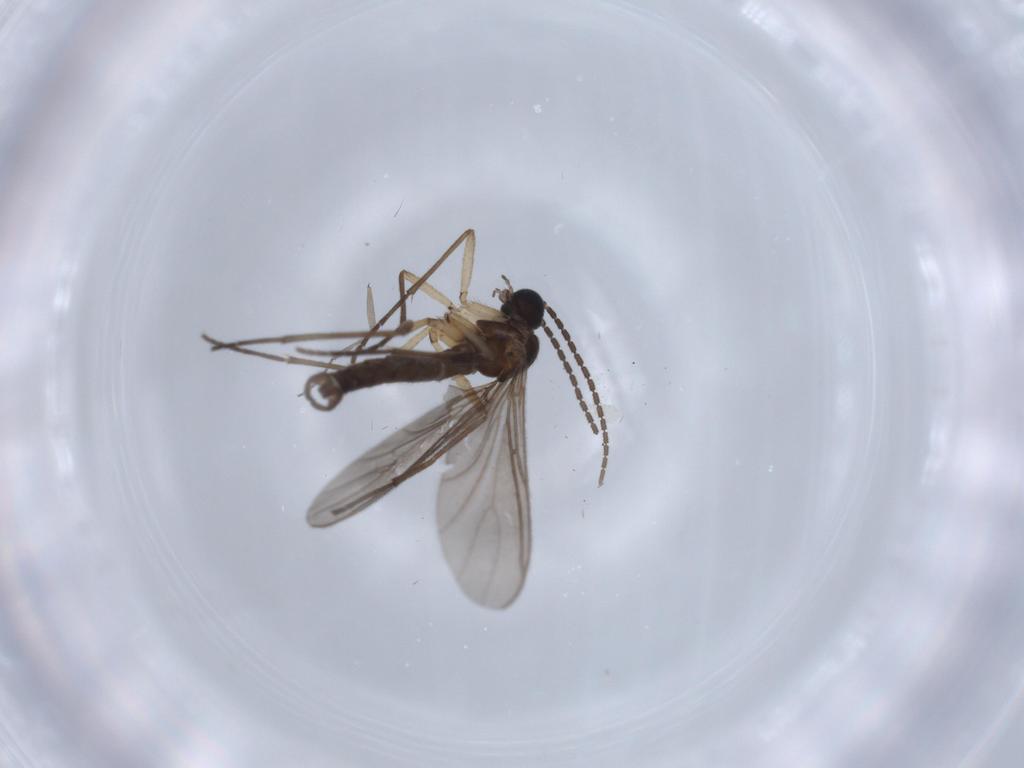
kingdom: Animalia
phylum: Arthropoda
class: Insecta
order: Diptera
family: Sciaridae
